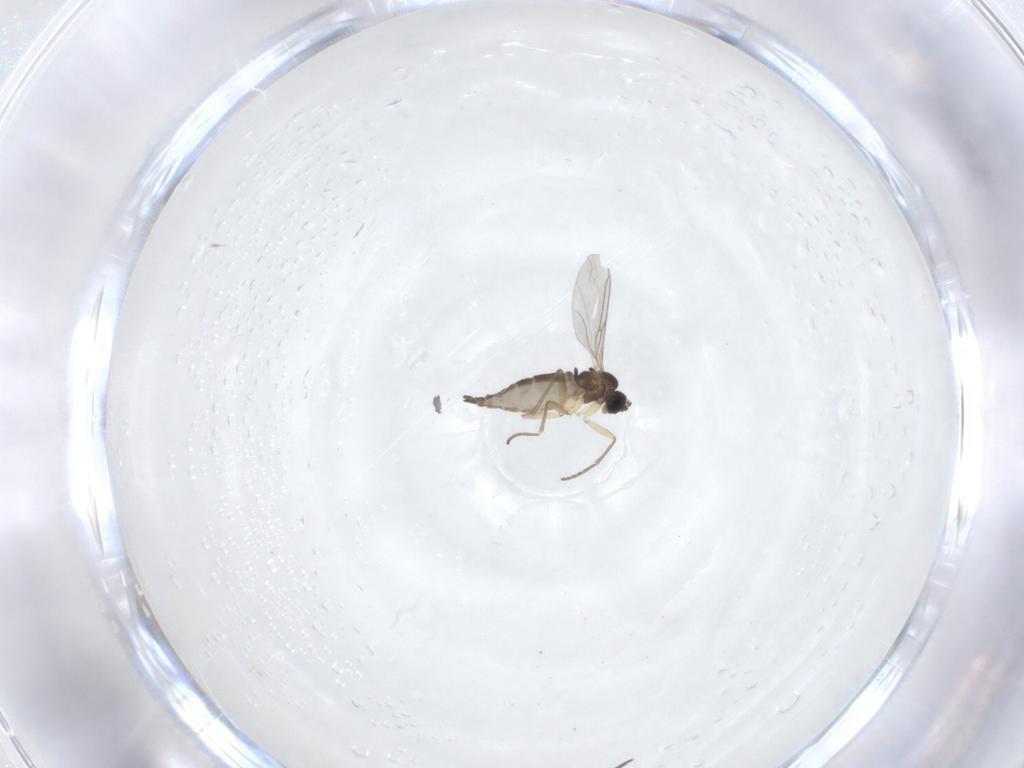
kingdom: Animalia
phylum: Arthropoda
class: Insecta
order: Diptera
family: Sciaridae
